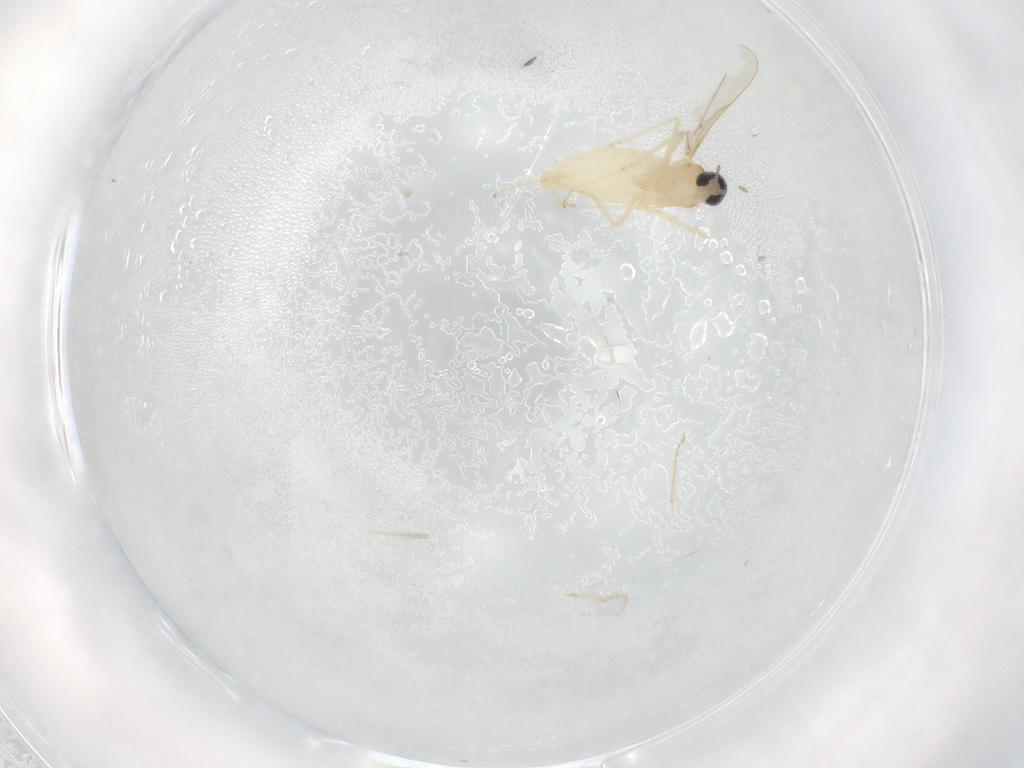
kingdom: Animalia
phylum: Arthropoda
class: Insecta
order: Diptera
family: Cecidomyiidae
